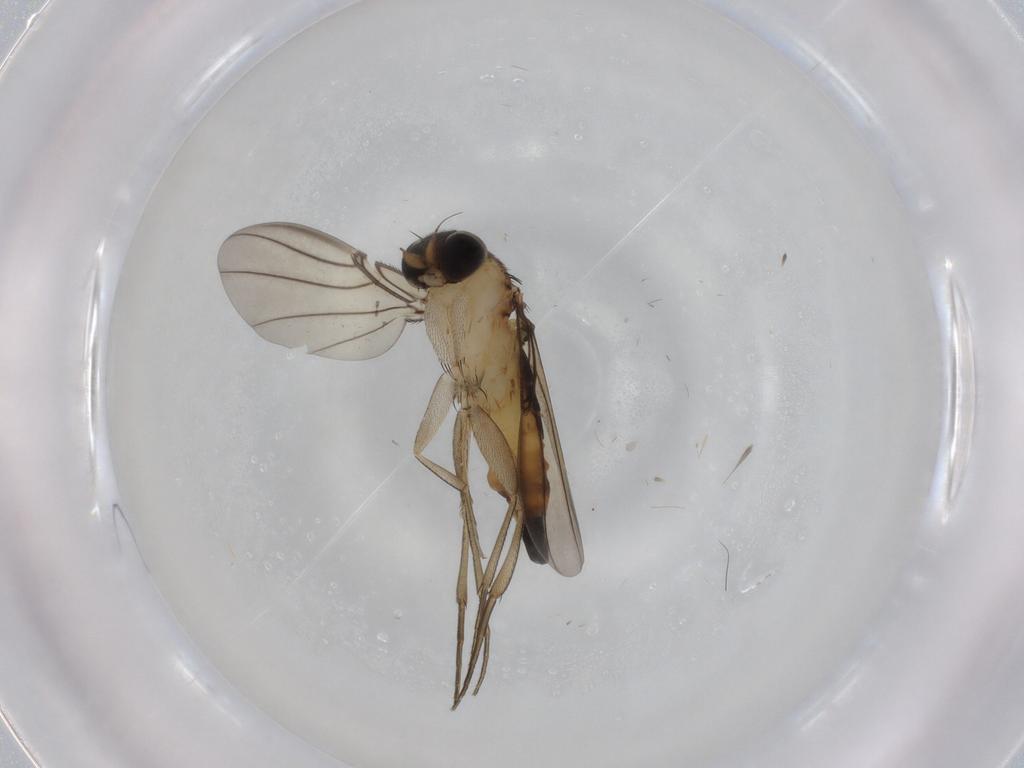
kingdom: Animalia
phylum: Arthropoda
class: Insecta
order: Diptera
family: Phoridae
